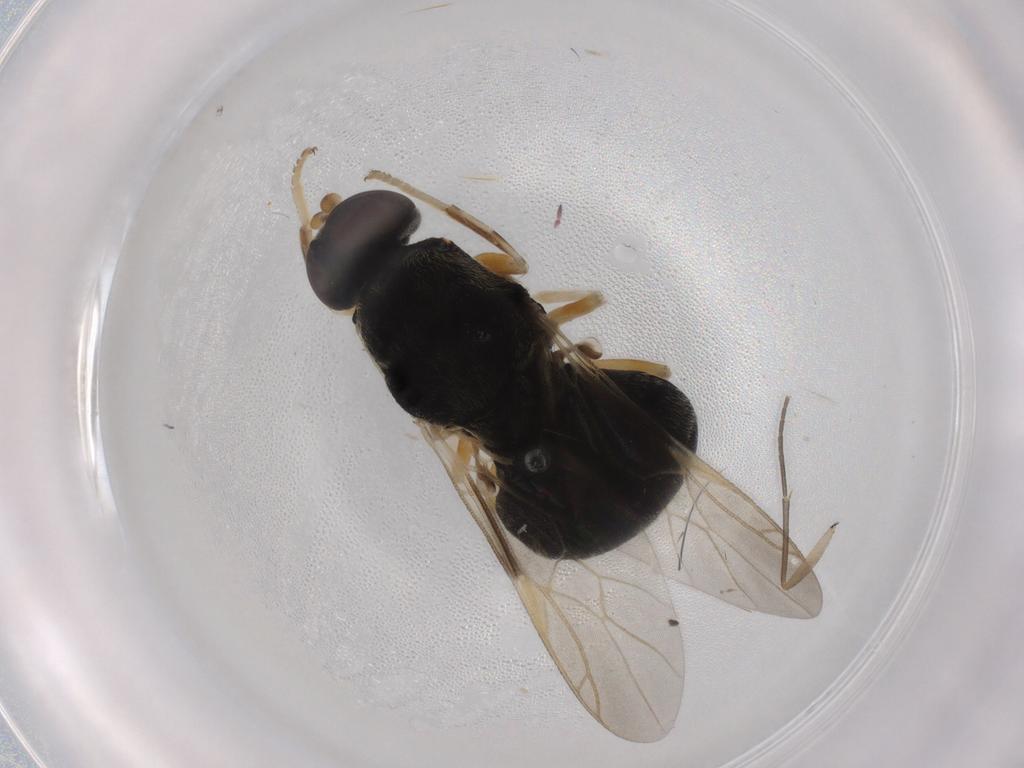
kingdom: Animalia
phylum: Arthropoda
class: Insecta
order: Diptera
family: Stratiomyidae
